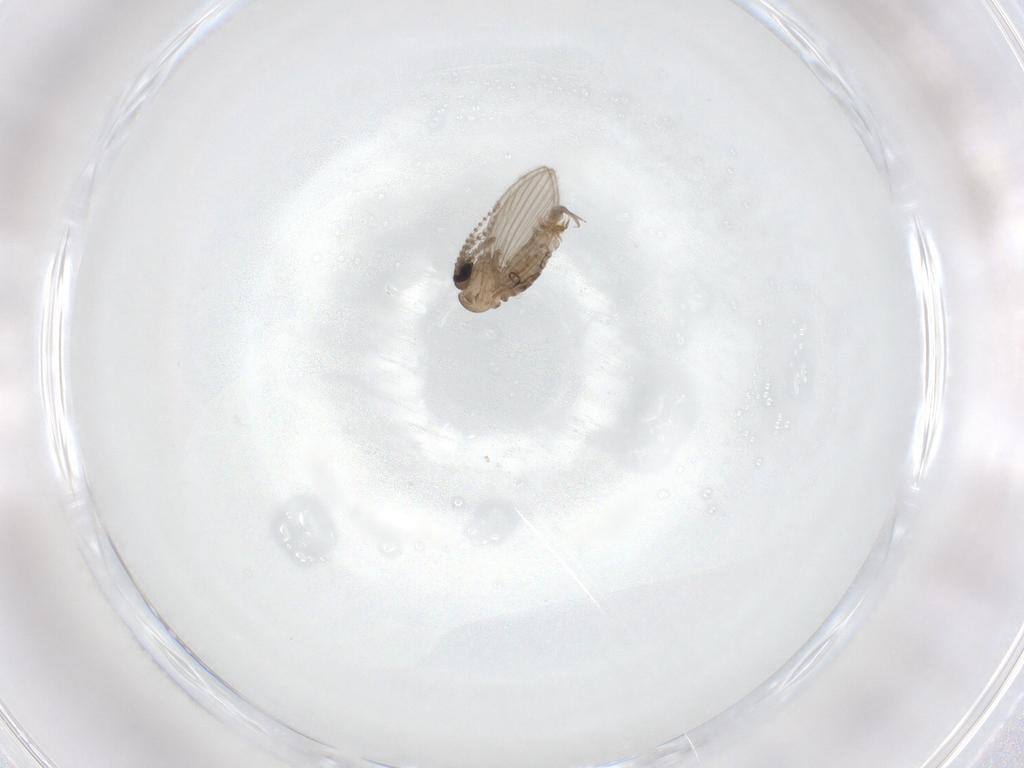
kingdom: Animalia
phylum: Arthropoda
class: Insecta
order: Diptera
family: Psychodidae
